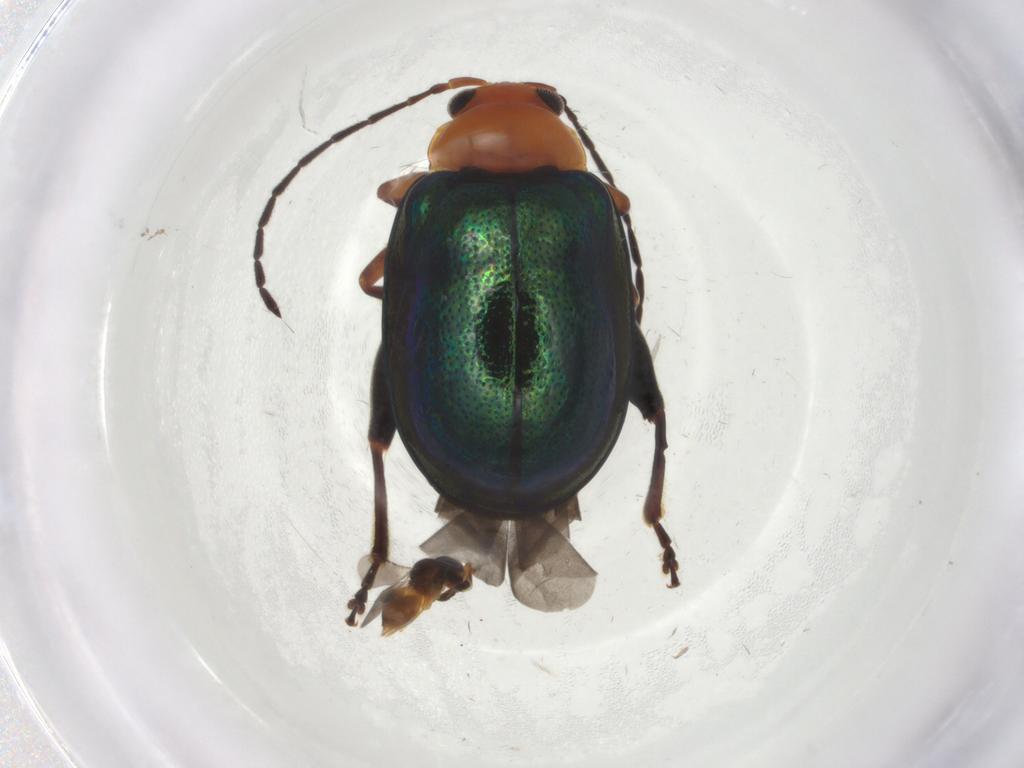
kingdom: Animalia
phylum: Arthropoda
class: Insecta
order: Coleoptera
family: Chrysomelidae
